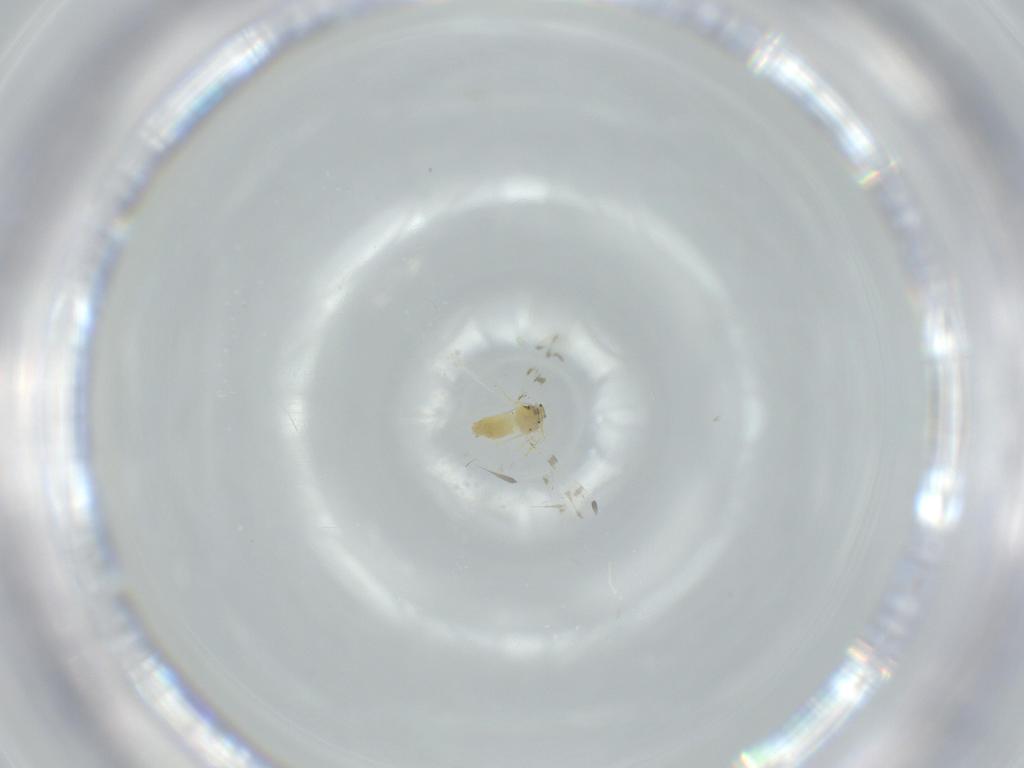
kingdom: Animalia
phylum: Arthropoda
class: Insecta
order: Hemiptera
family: Aleyrodidae
